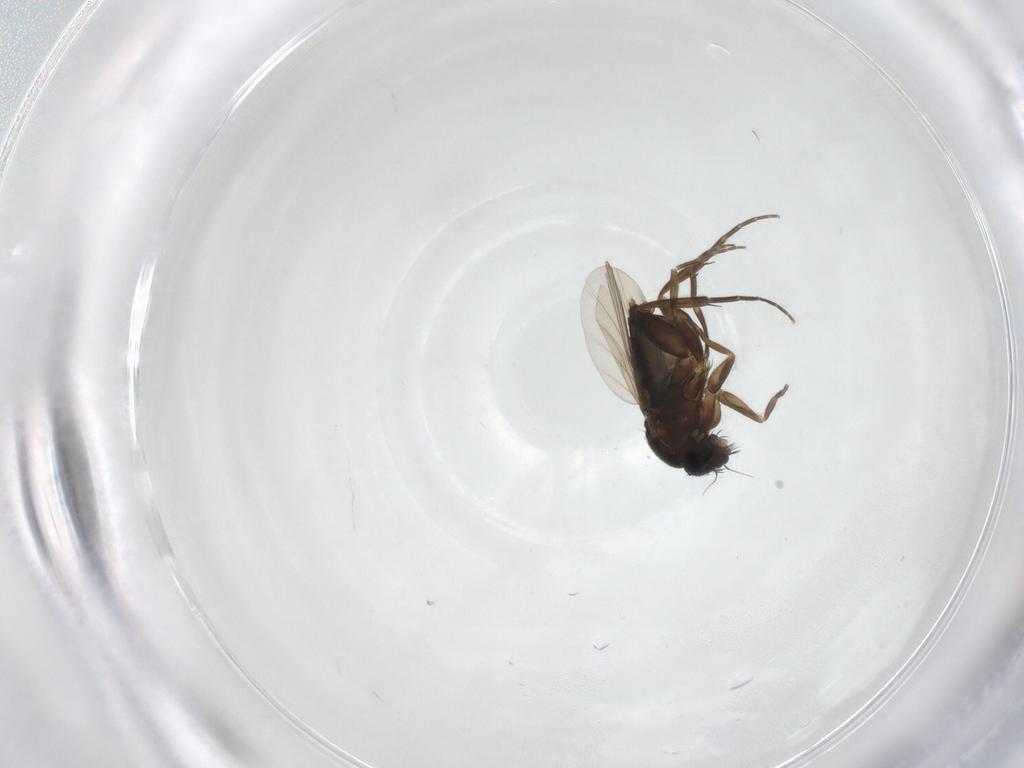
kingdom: Animalia
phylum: Arthropoda
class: Insecta
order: Diptera
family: Phoridae
